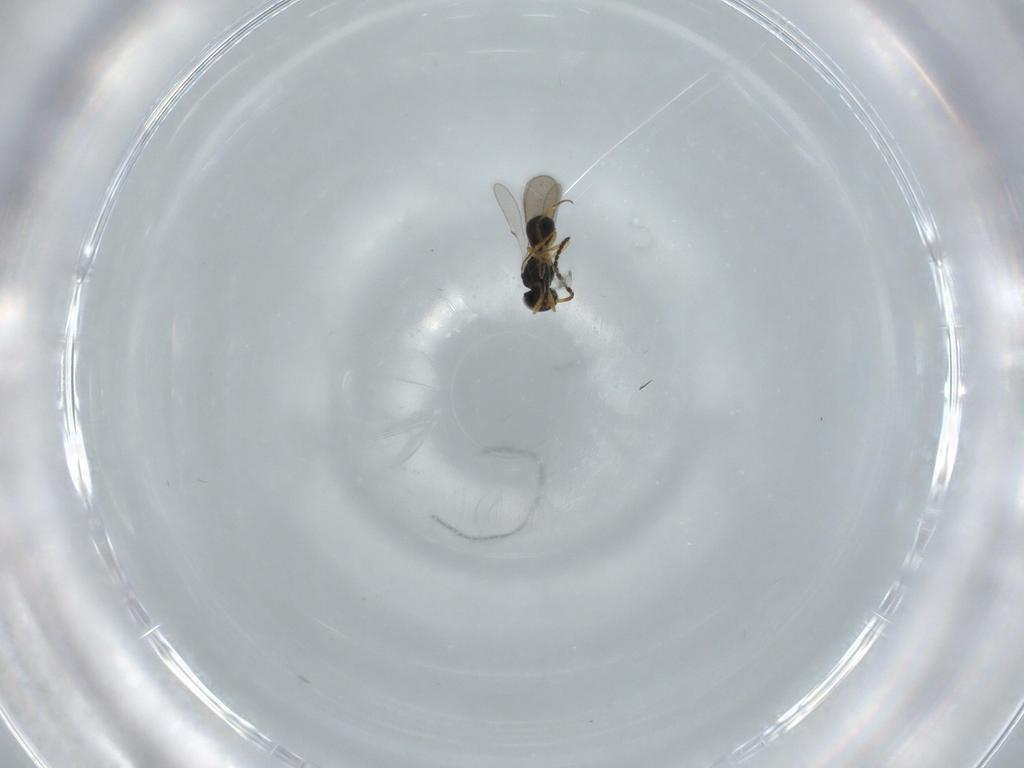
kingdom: Animalia
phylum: Arthropoda
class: Insecta
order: Hymenoptera
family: Scelionidae
